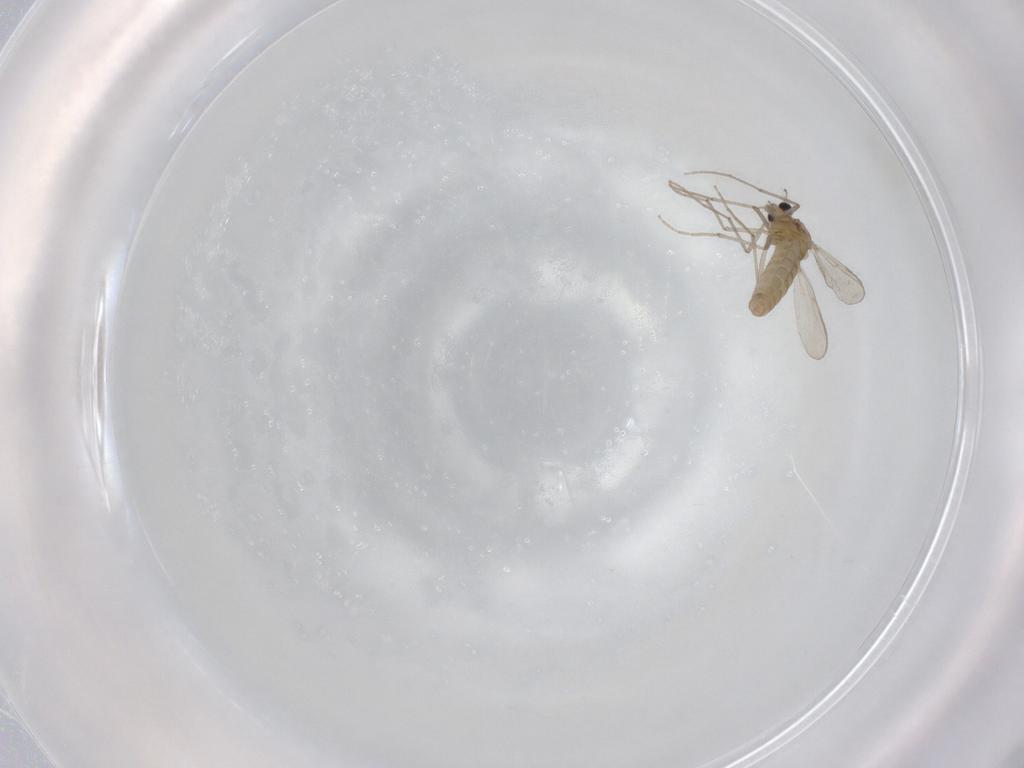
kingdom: Animalia
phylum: Arthropoda
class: Insecta
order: Diptera
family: Chironomidae
